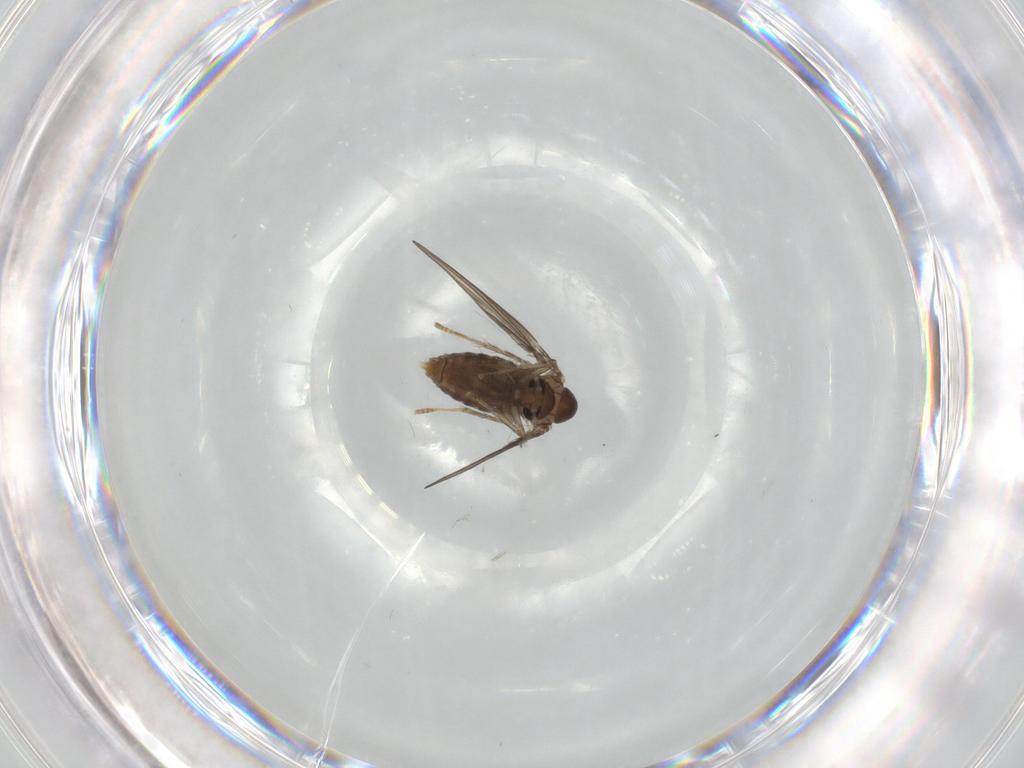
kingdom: Animalia
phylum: Arthropoda
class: Insecta
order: Diptera
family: Psychodidae
